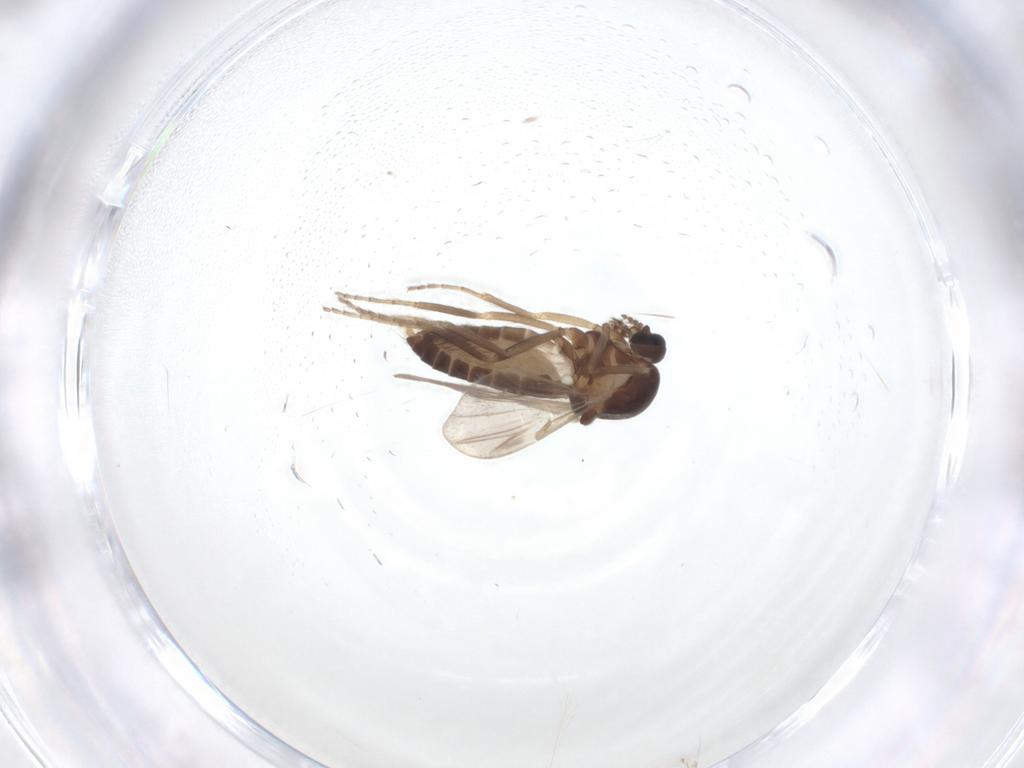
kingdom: Animalia
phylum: Arthropoda
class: Insecta
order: Diptera
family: Ceratopogonidae
